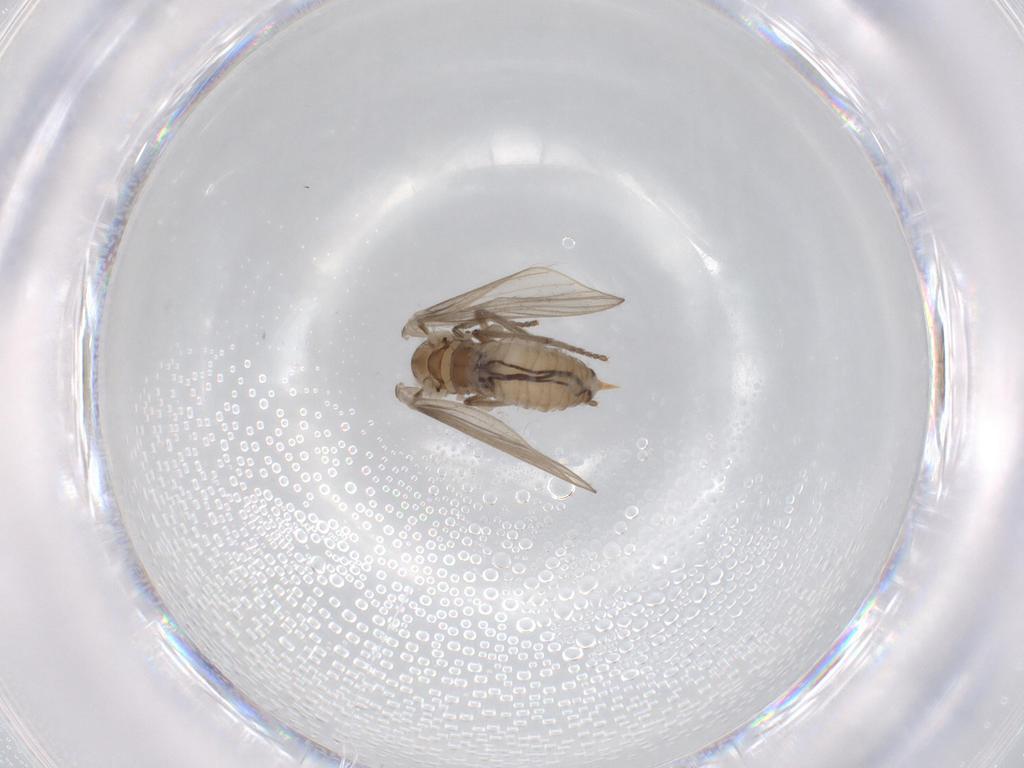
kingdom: Animalia
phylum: Arthropoda
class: Insecta
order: Diptera
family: Psychodidae
